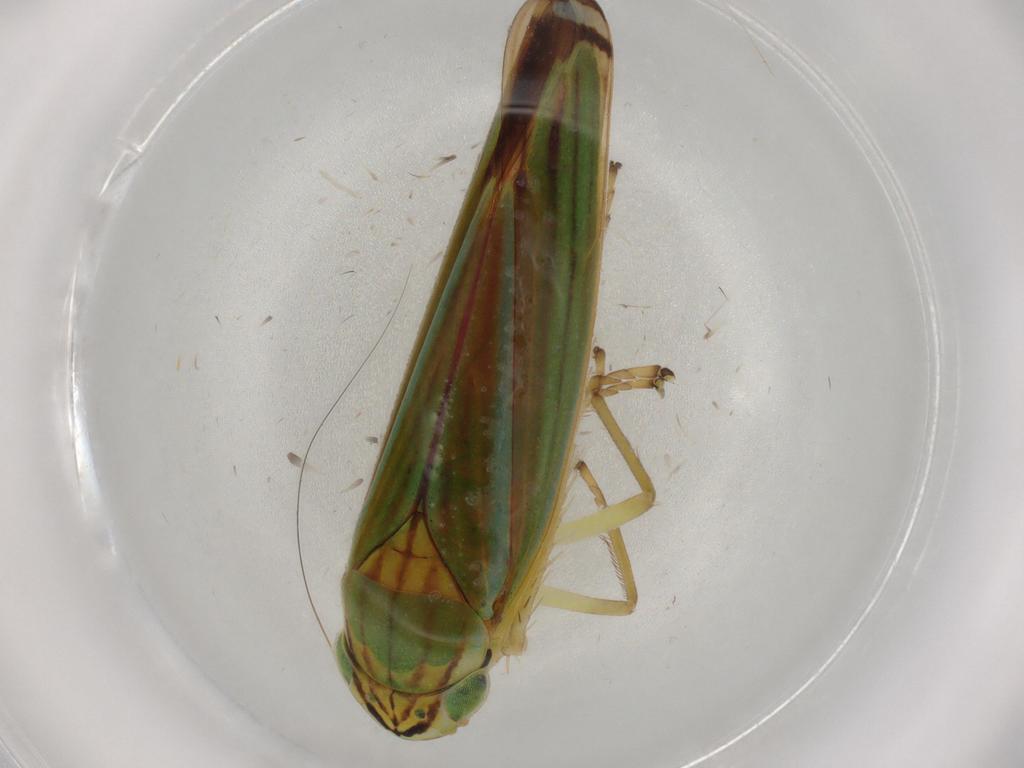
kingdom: Animalia
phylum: Arthropoda
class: Insecta
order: Hemiptera
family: Cicadellidae
